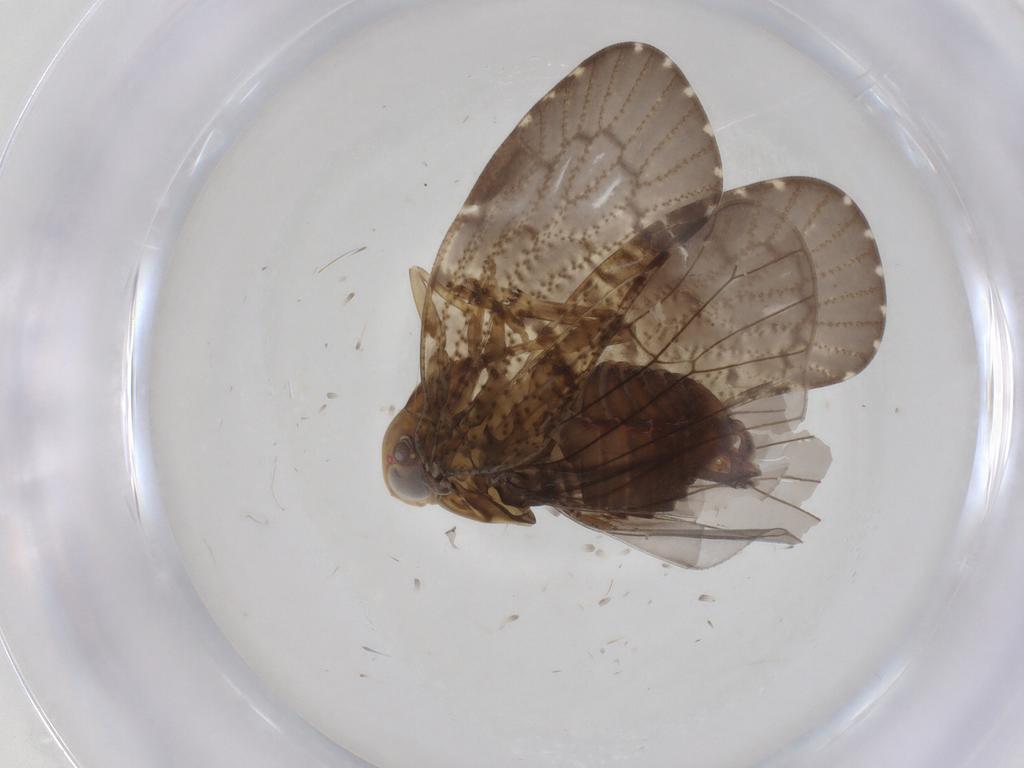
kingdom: Animalia
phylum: Arthropoda
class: Insecta
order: Hemiptera
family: Cixiidae
